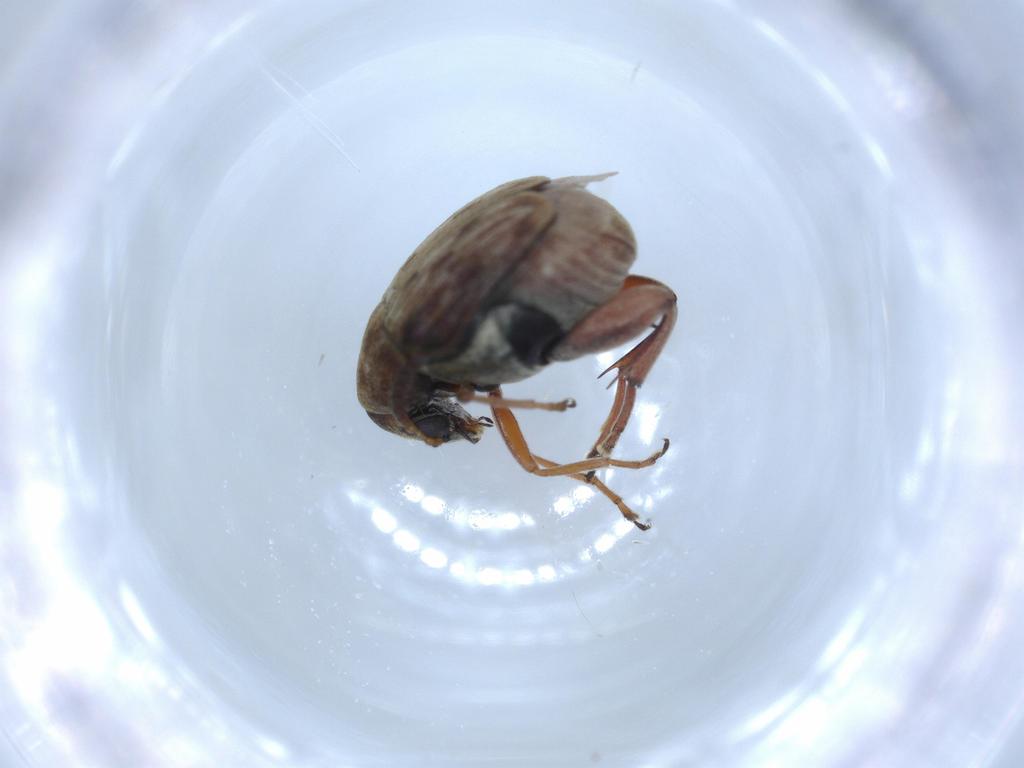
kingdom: Animalia
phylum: Arthropoda
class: Insecta
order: Coleoptera
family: Chrysomelidae
